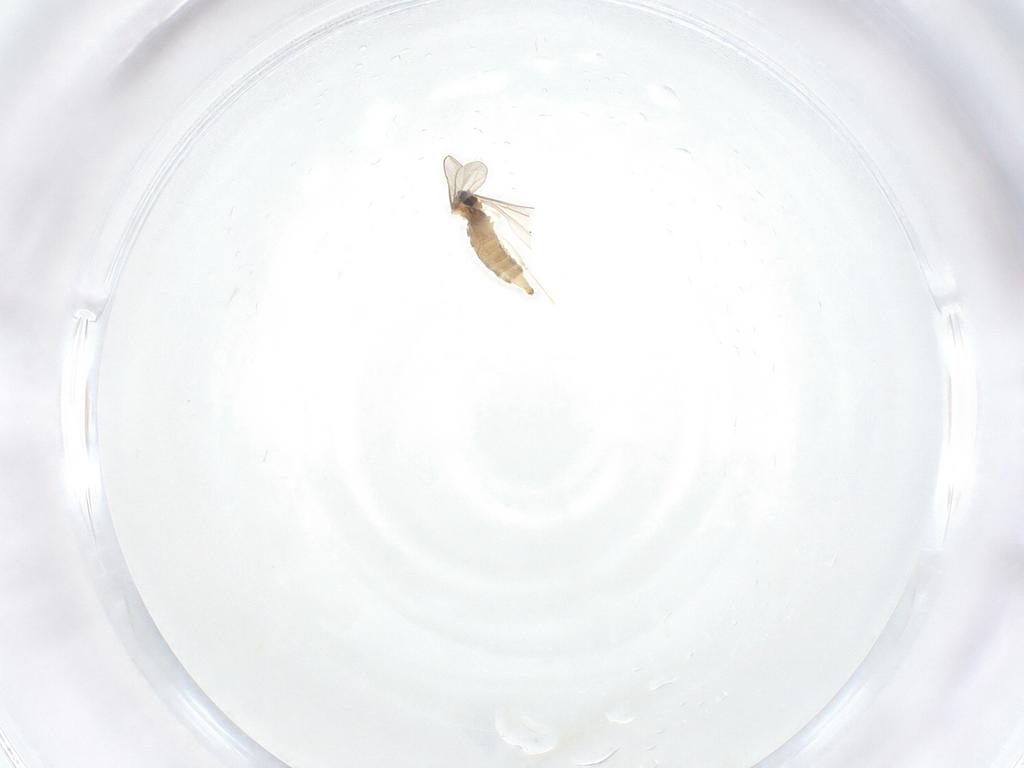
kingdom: Animalia
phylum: Arthropoda
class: Insecta
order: Diptera
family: Cecidomyiidae
